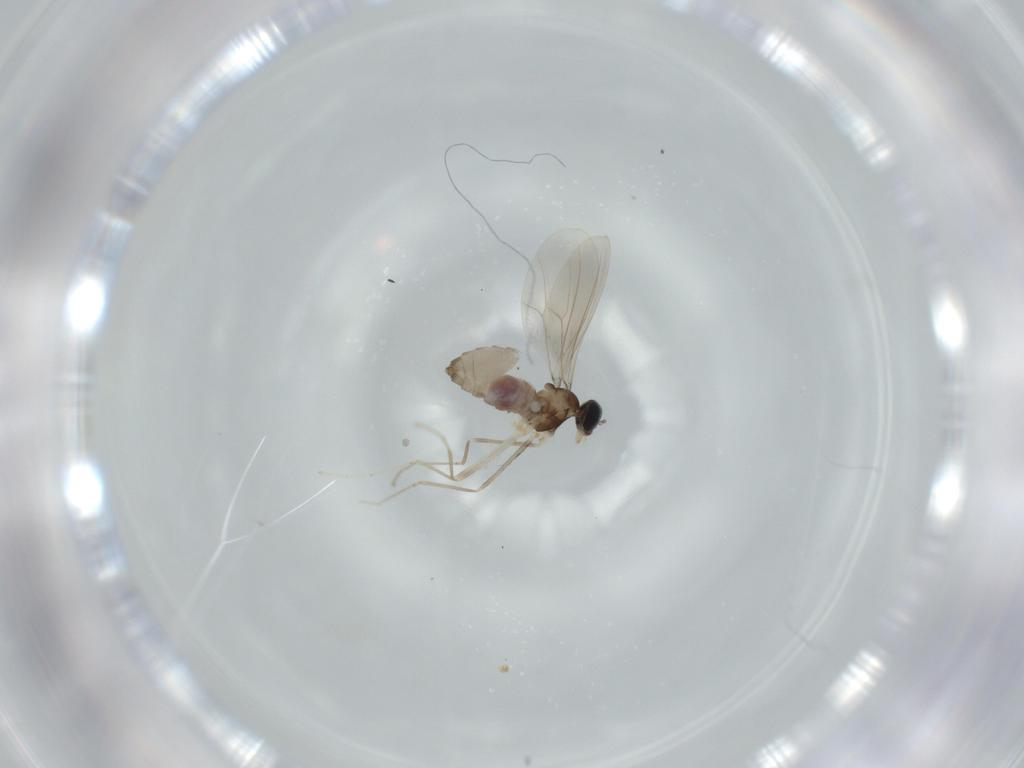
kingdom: Animalia
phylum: Arthropoda
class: Insecta
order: Diptera
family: Cecidomyiidae
